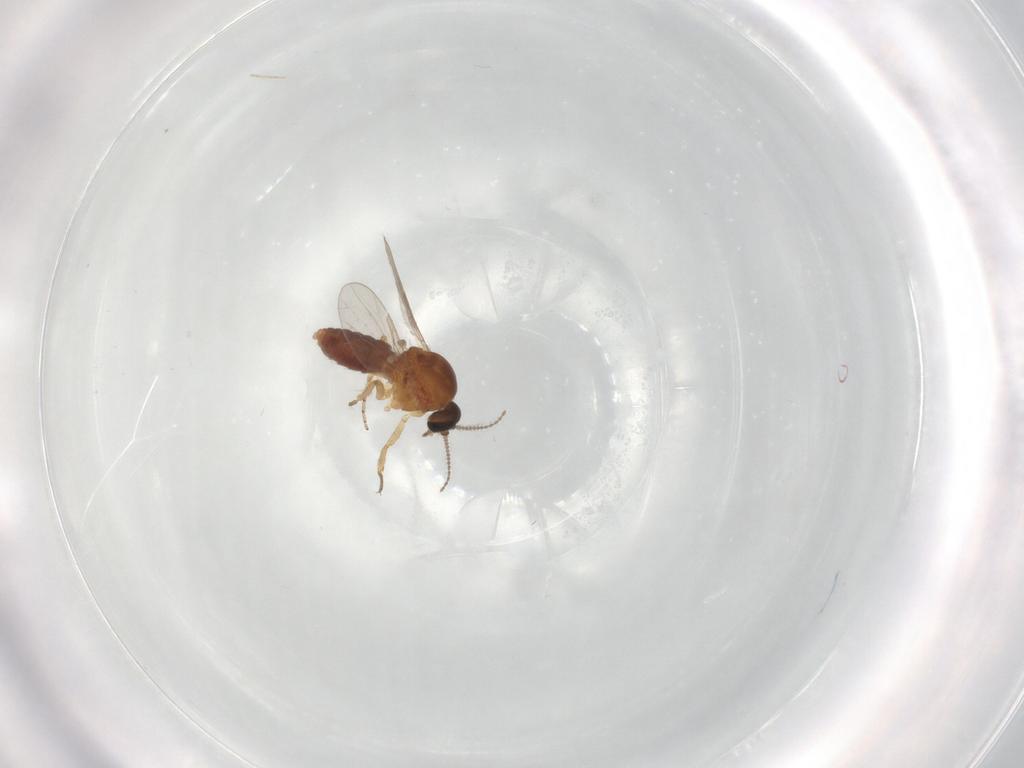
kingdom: Animalia
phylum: Arthropoda
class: Insecta
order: Diptera
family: Ceratopogonidae
